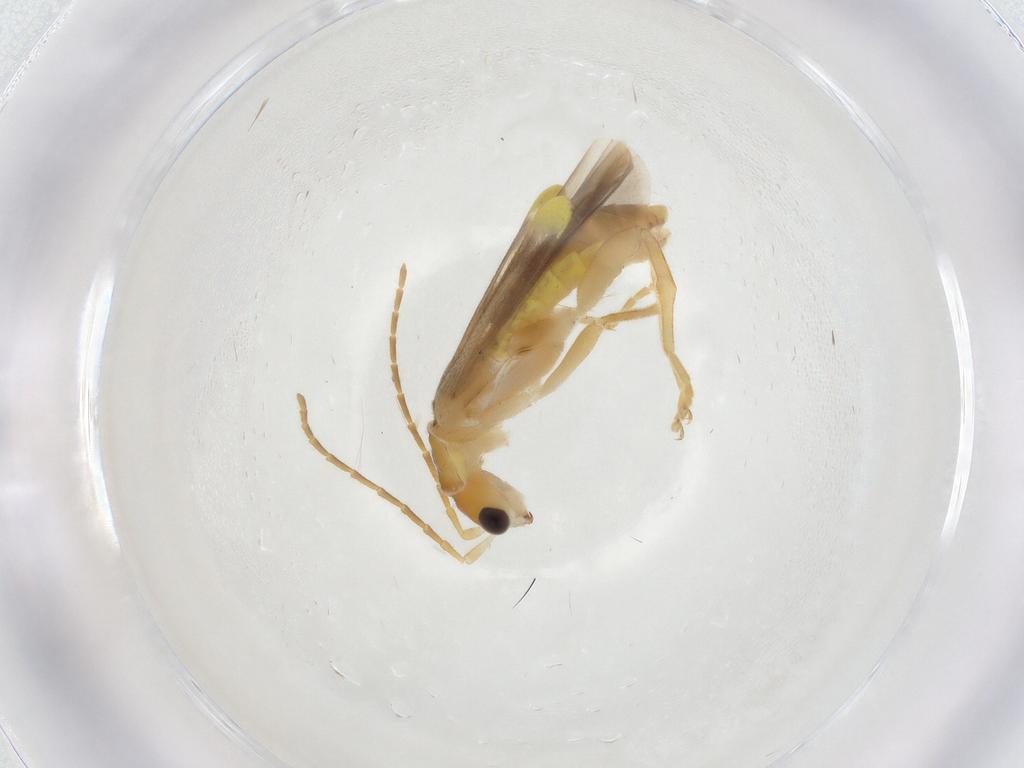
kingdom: Animalia
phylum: Arthropoda
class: Insecta
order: Coleoptera
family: Cantharidae
